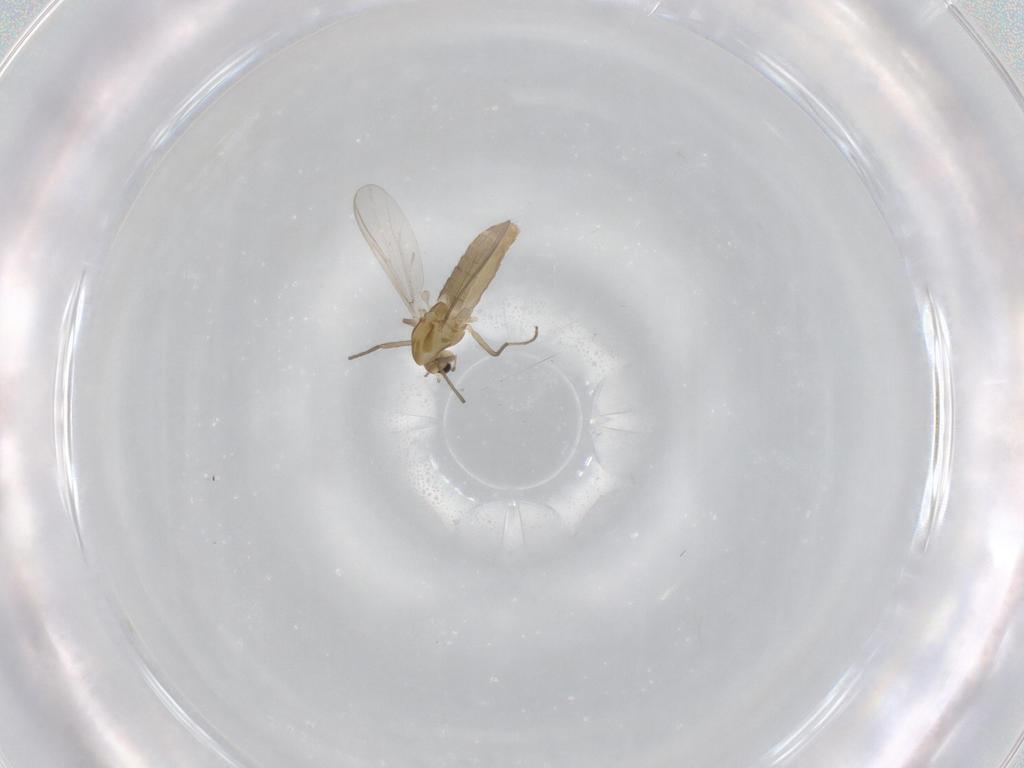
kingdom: Animalia
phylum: Arthropoda
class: Insecta
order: Diptera
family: Chironomidae
